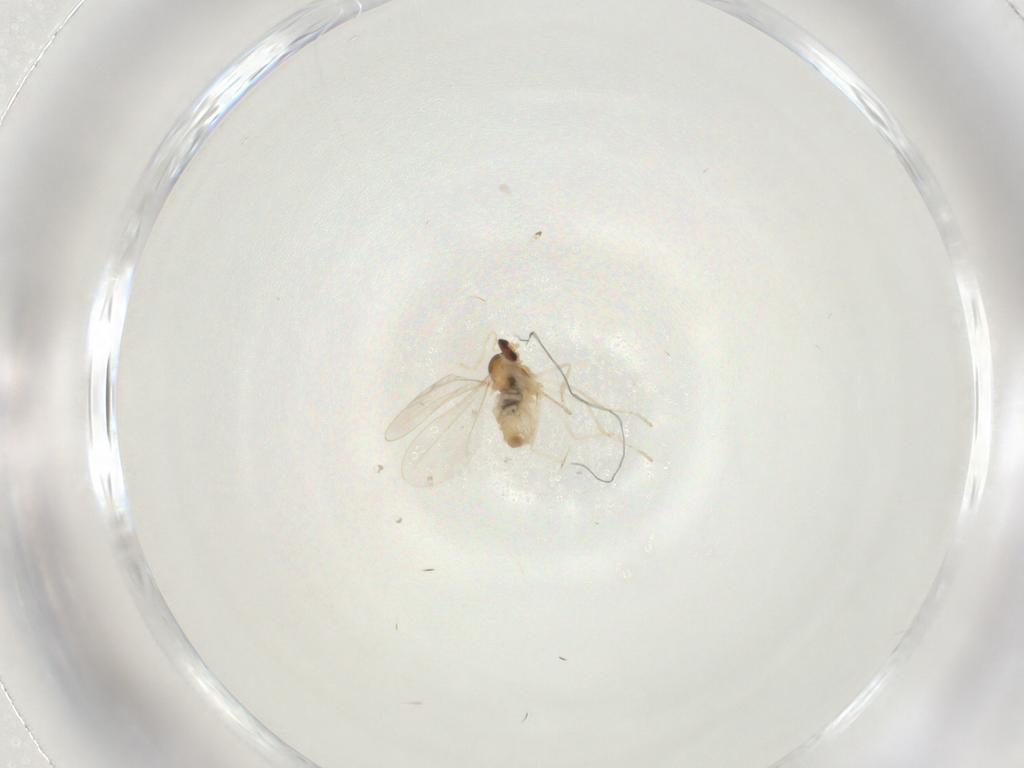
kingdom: Animalia
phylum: Arthropoda
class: Insecta
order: Diptera
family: Cecidomyiidae
